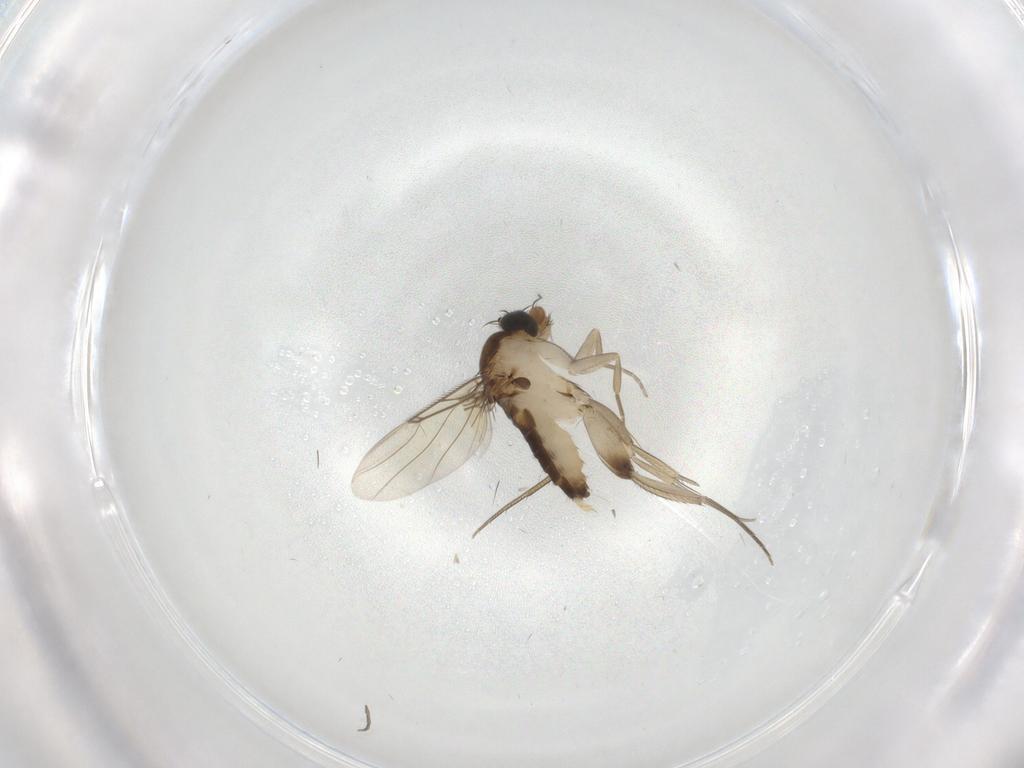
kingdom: Animalia
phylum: Arthropoda
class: Insecta
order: Diptera
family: Phoridae
